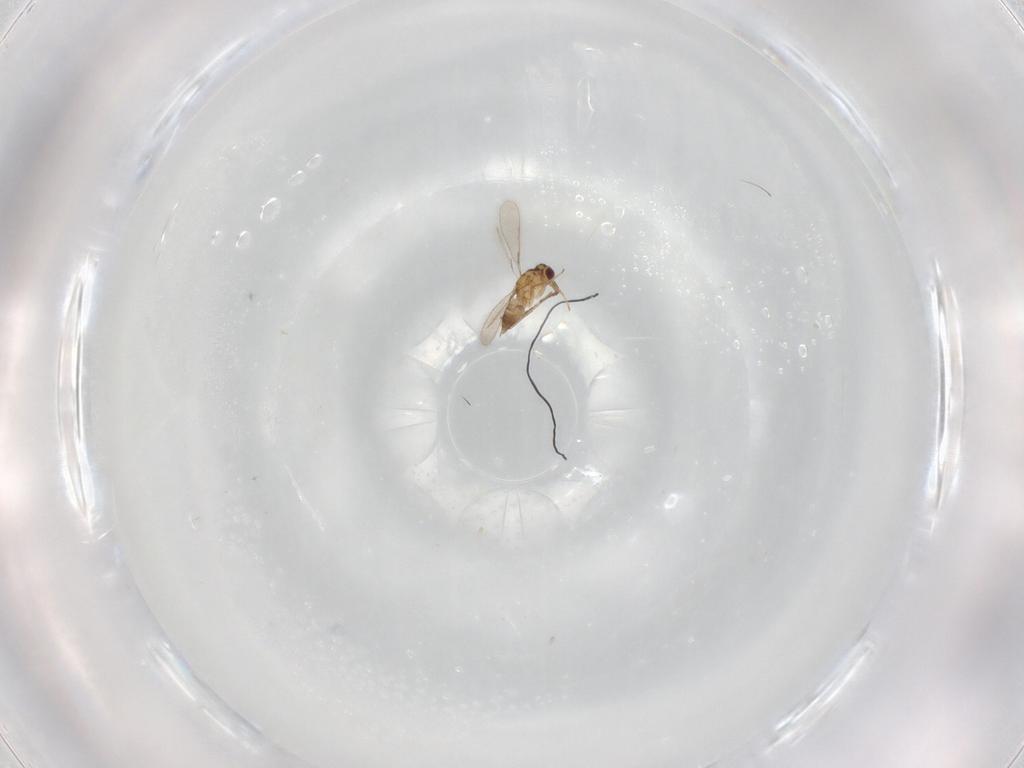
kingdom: Animalia
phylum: Arthropoda
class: Insecta
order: Hymenoptera
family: Mymaridae
